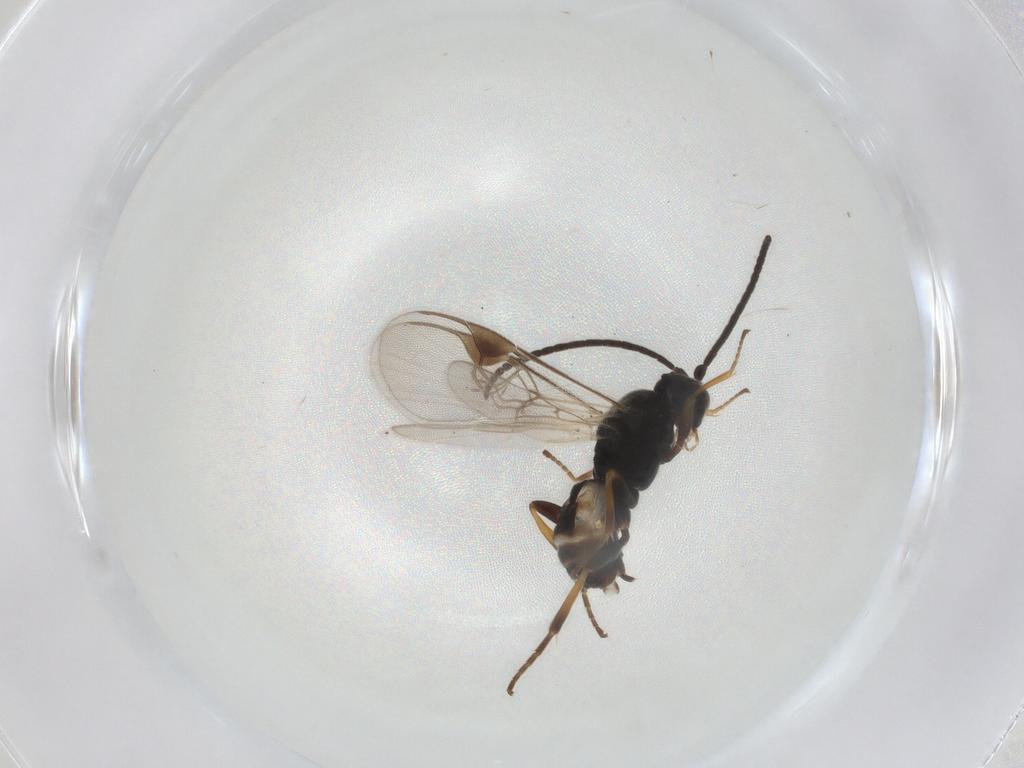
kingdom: Animalia
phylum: Arthropoda
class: Insecta
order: Hymenoptera
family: Braconidae
